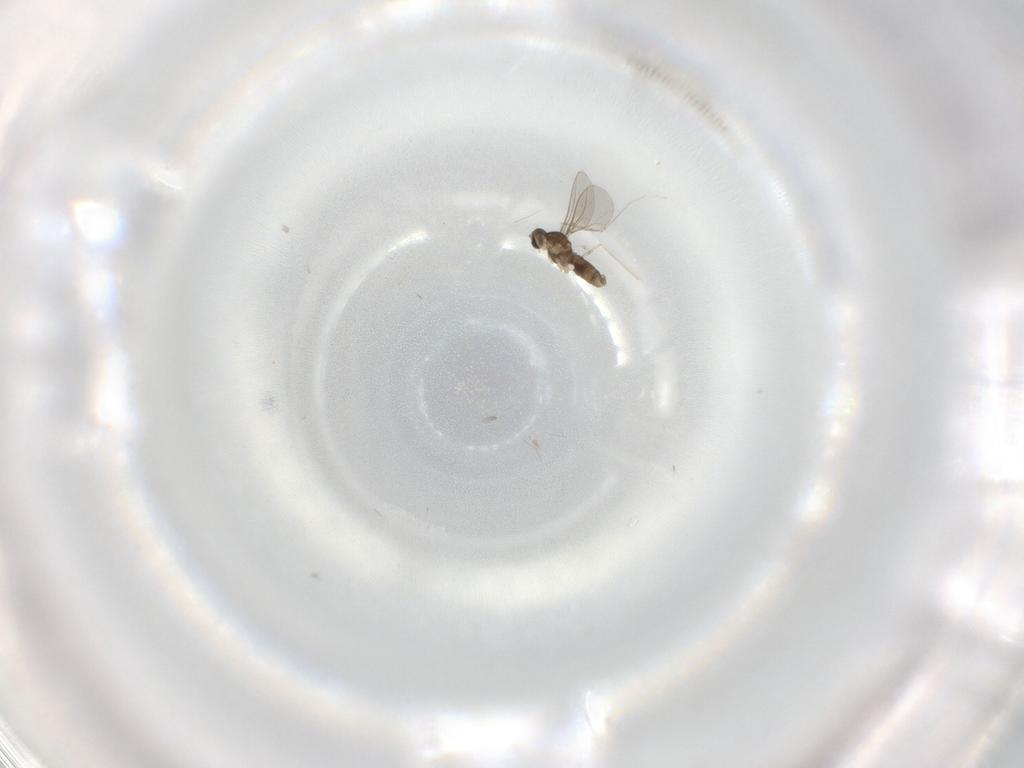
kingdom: Animalia
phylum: Arthropoda
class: Insecta
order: Diptera
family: Cecidomyiidae
